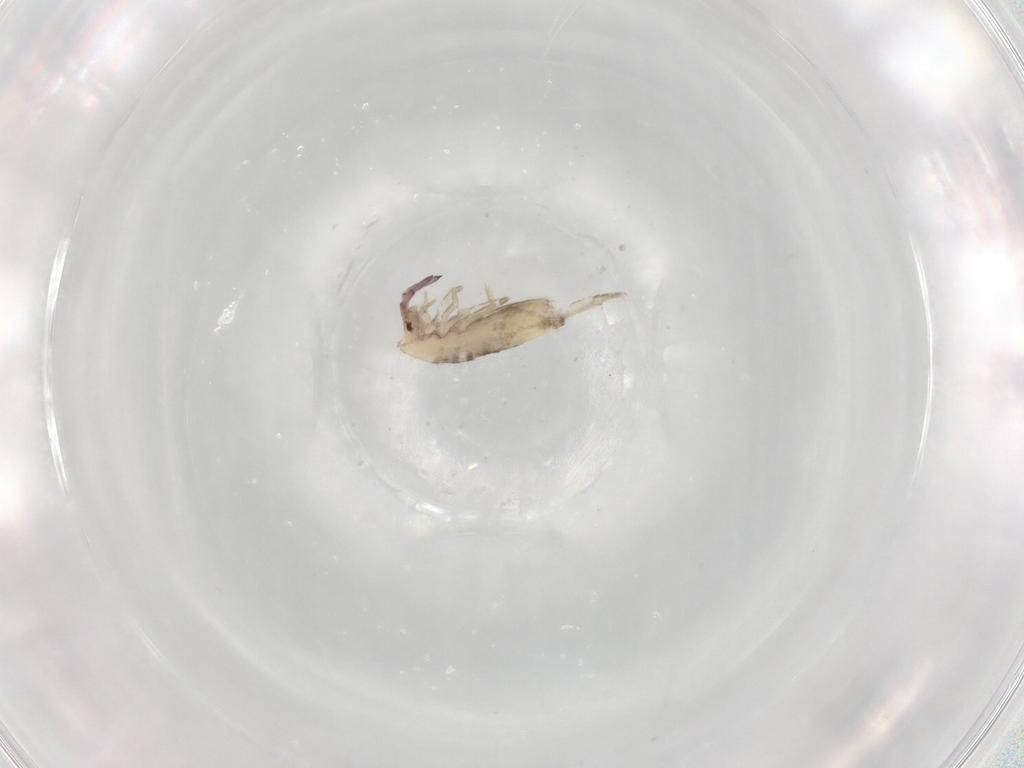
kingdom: Animalia
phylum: Arthropoda
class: Collembola
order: Entomobryomorpha
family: Entomobryidae
